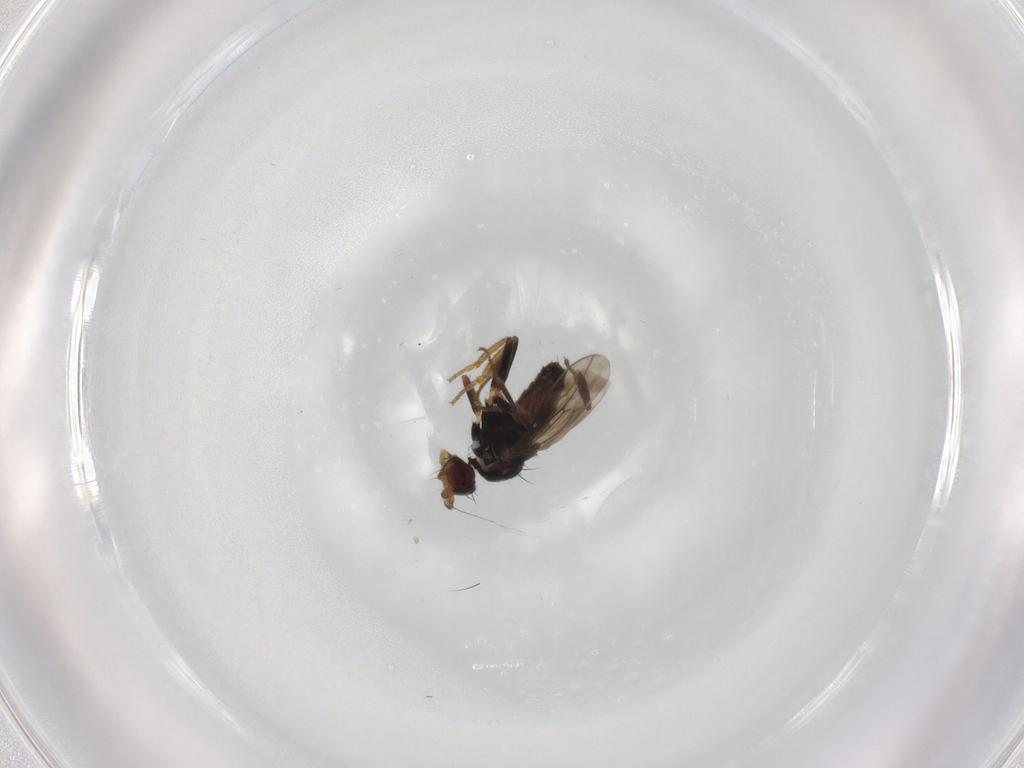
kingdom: Animalia
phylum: Arthropoda
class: Insecta
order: Diptera
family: Sphaeroceridae
